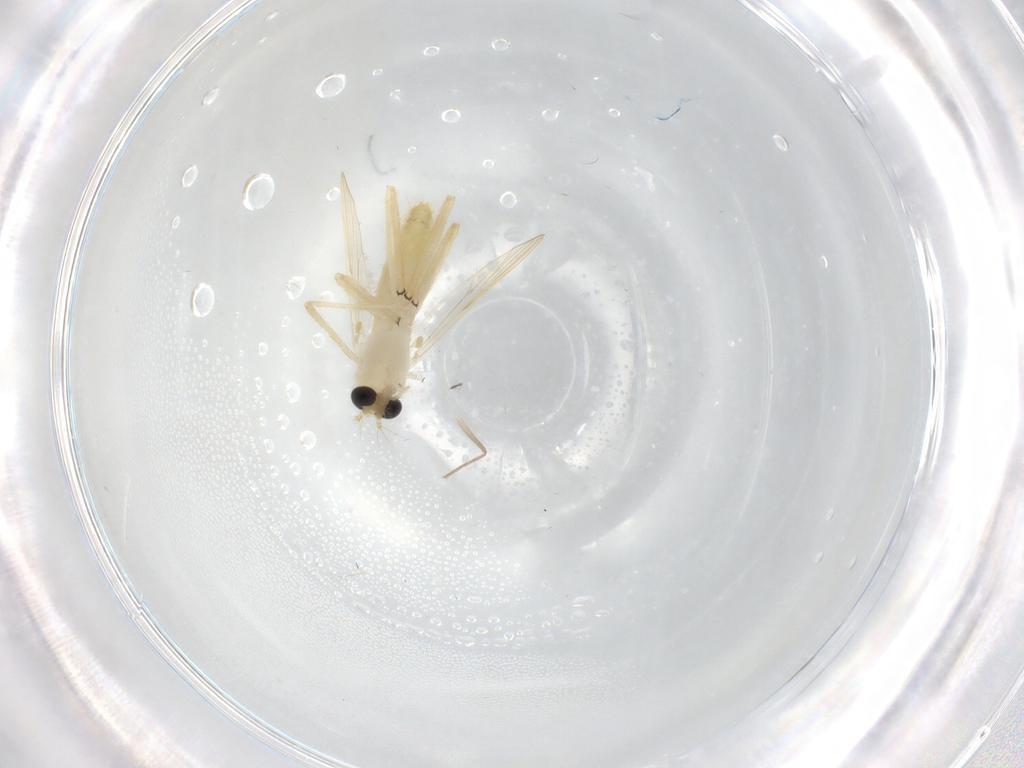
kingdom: Animalia
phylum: Arthropoda
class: Insecta
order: Diptera
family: Chironomidae
